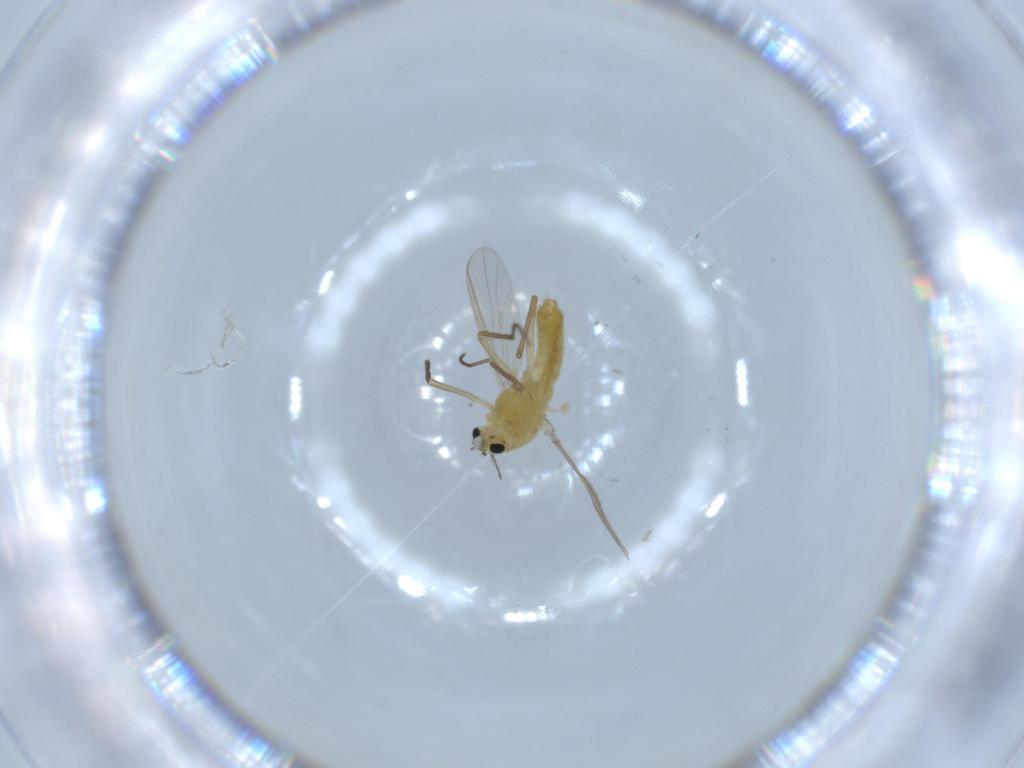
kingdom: Animalia
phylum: Arthropoda
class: Insecta
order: Diptera
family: Chironomidae
